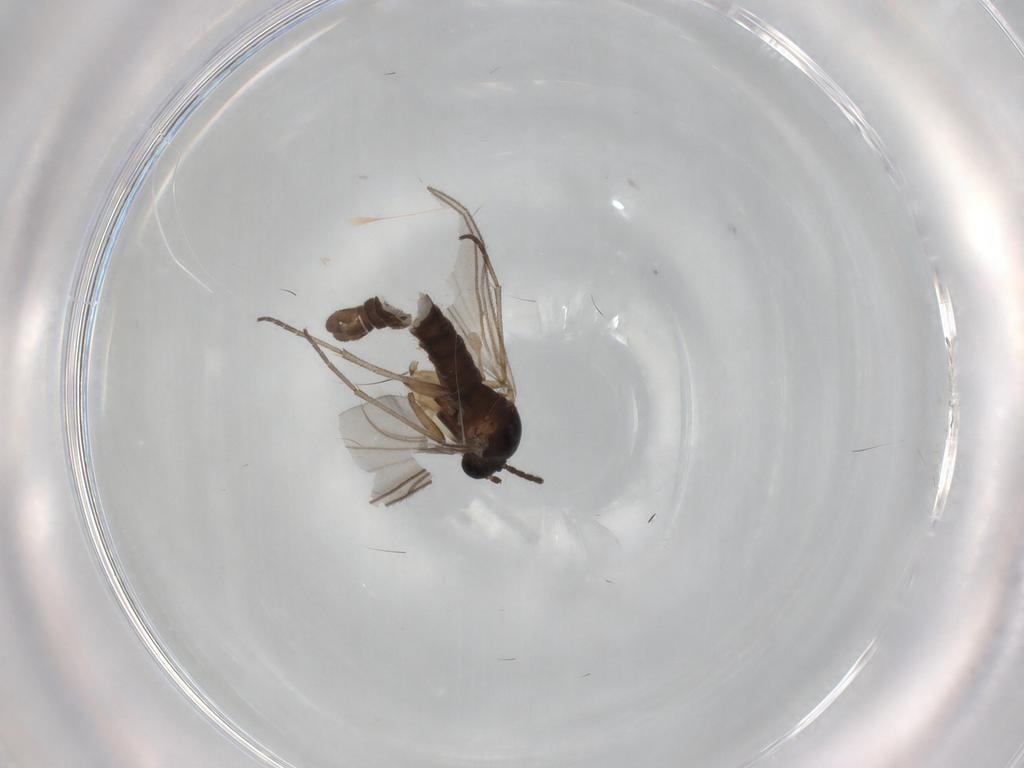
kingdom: Animalia
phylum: Arthropoda
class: Insecta
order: Diptera
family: Sciaridae
